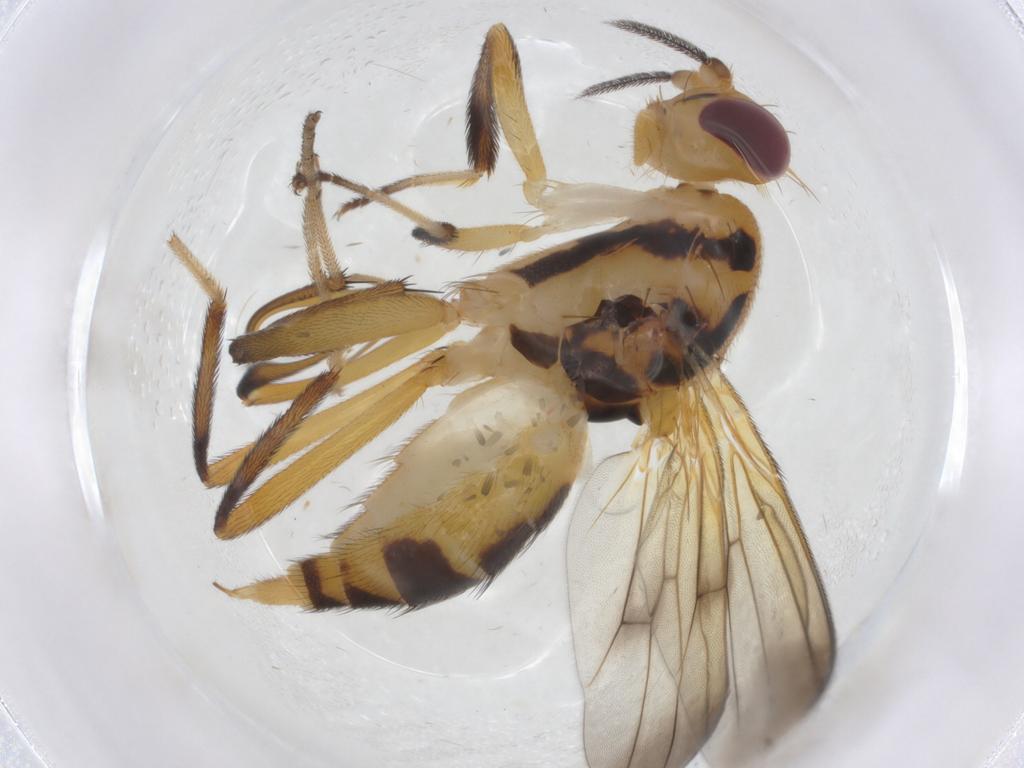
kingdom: Animalia
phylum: Arthropoda
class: Insecta
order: Diptera
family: Clusiidae
